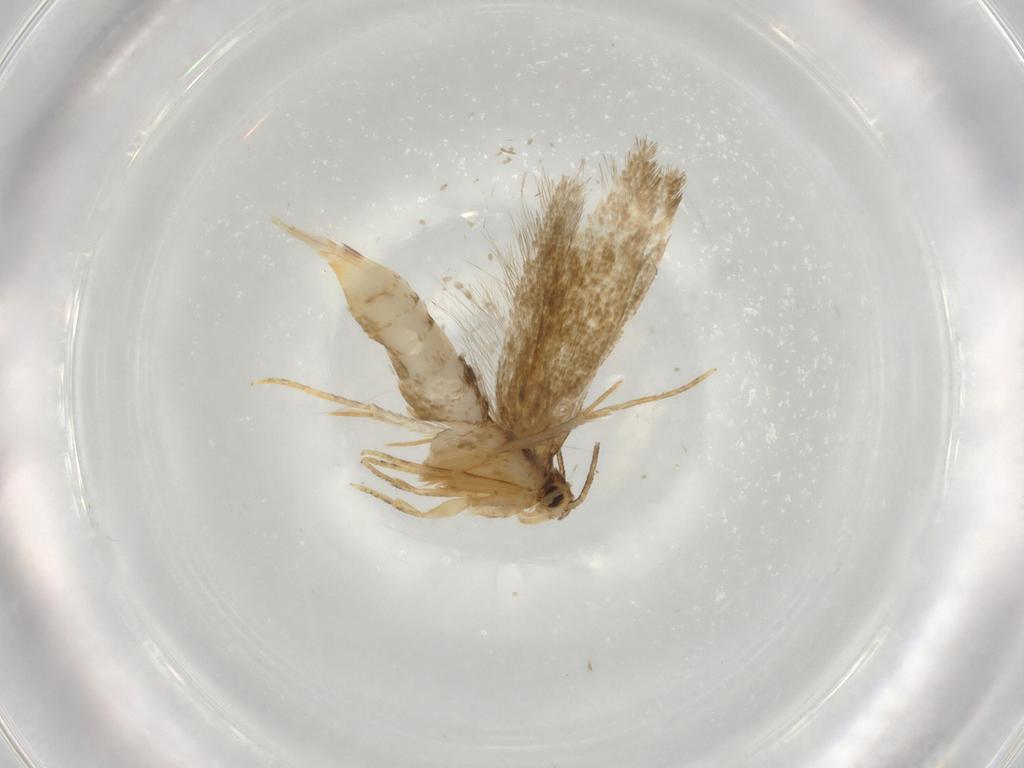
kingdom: Animalia
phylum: Arthropoda
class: Insecta
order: Lepidoptera
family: Tineidae
